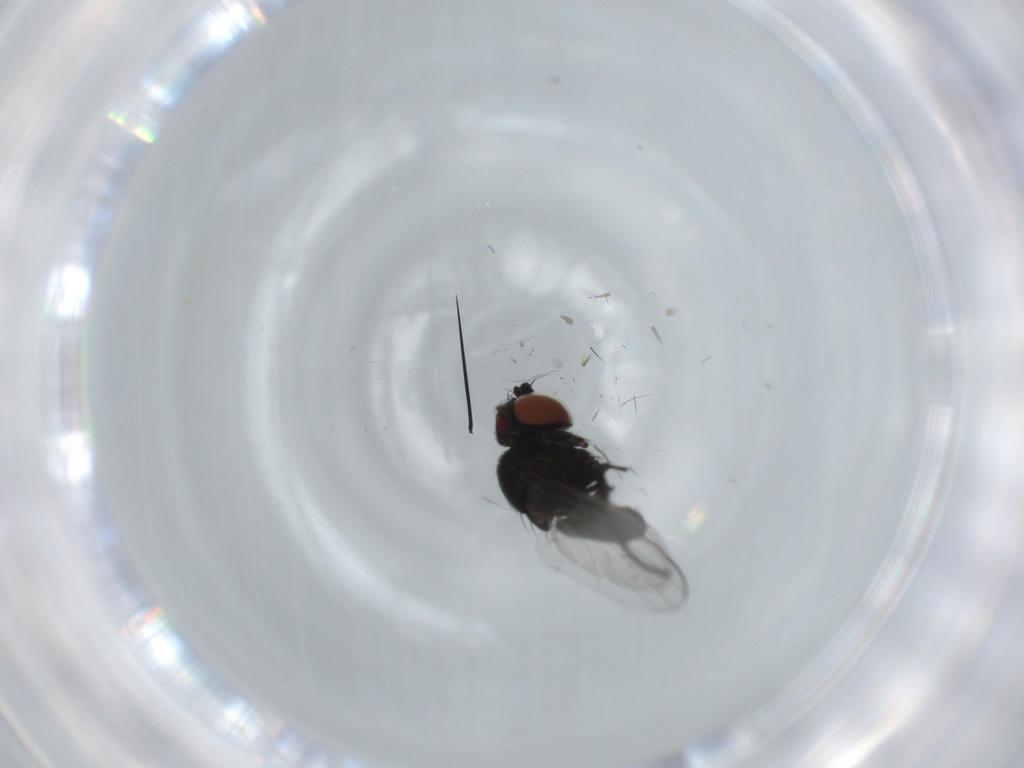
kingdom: Animalia
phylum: Arthropoda
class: Insecta
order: Diptera
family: Milichiidae
